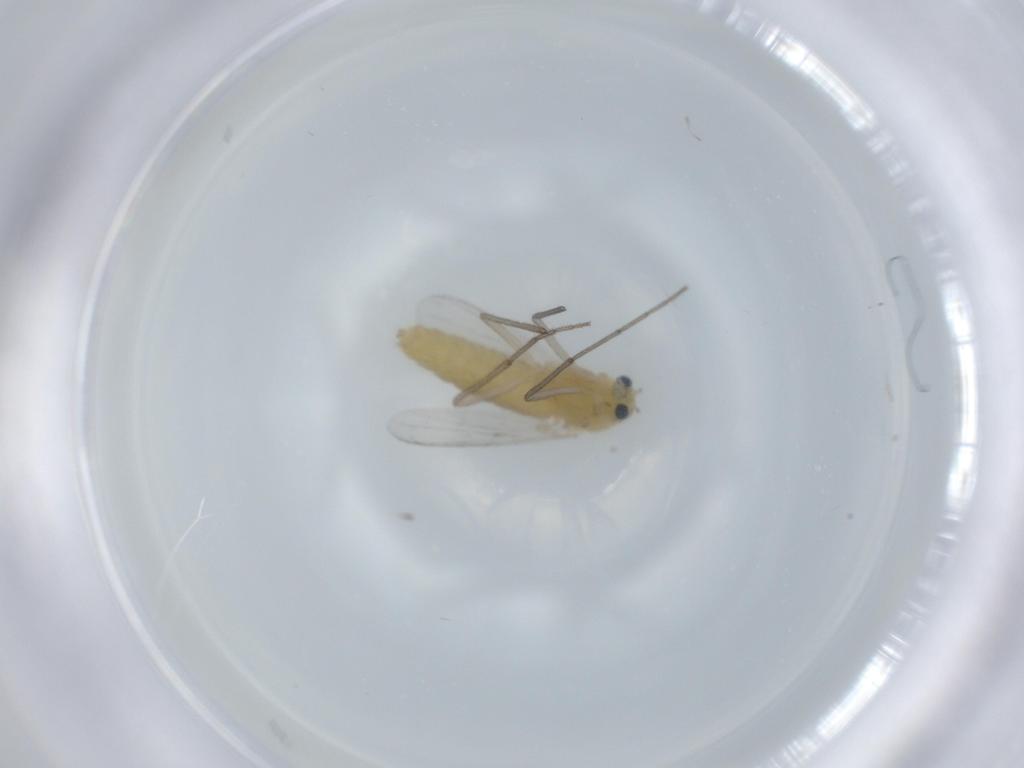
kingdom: Animalia
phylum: Arthropoda
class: Insecta
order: Diptera
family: Chironomidae
